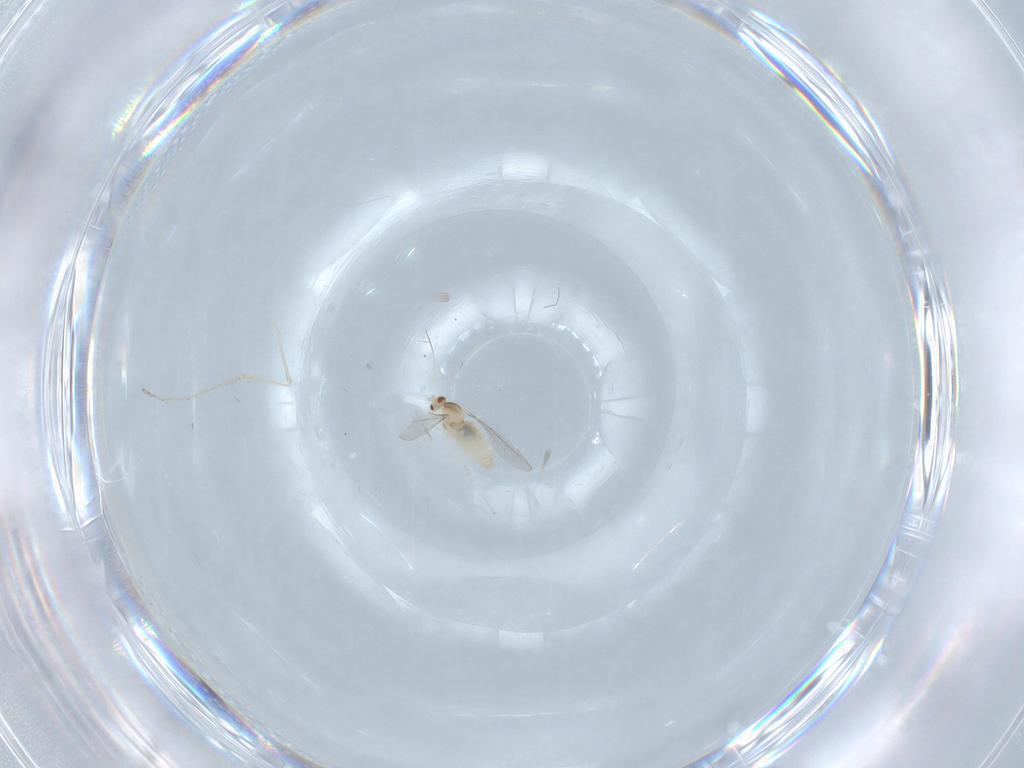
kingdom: Animalia
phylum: Arthropoda
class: Insecta
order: Diptera
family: Cecidomyiidae
